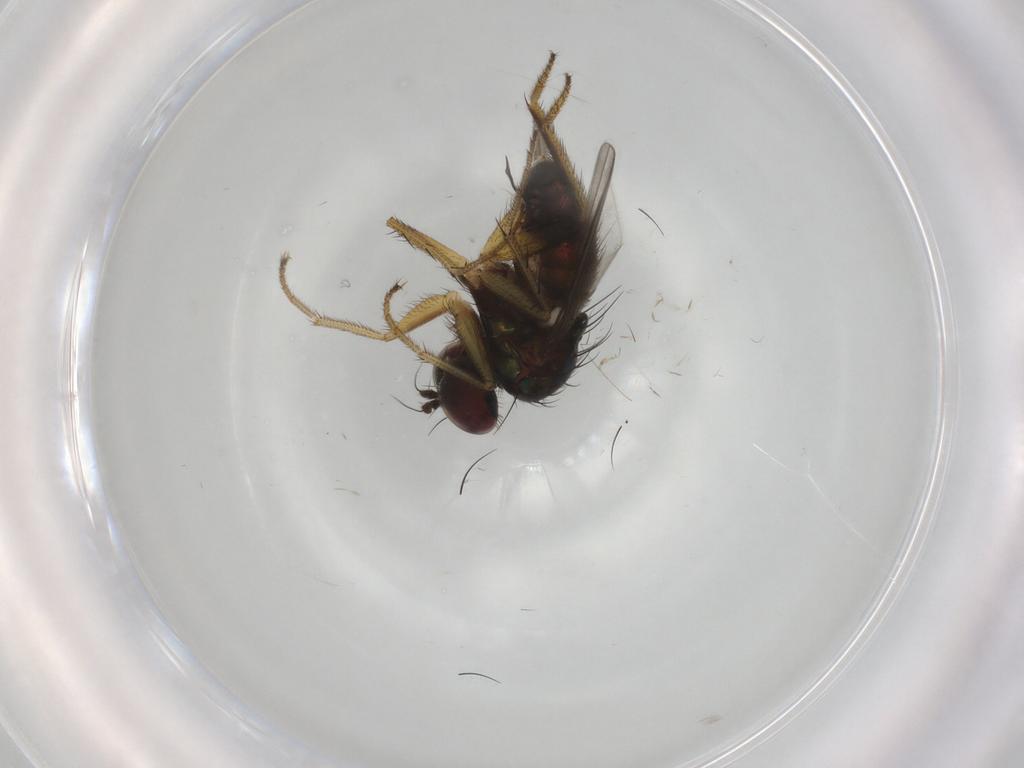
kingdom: Animalia
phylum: Arthropoda
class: Insecta
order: Diptera
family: Dolichopodidae
